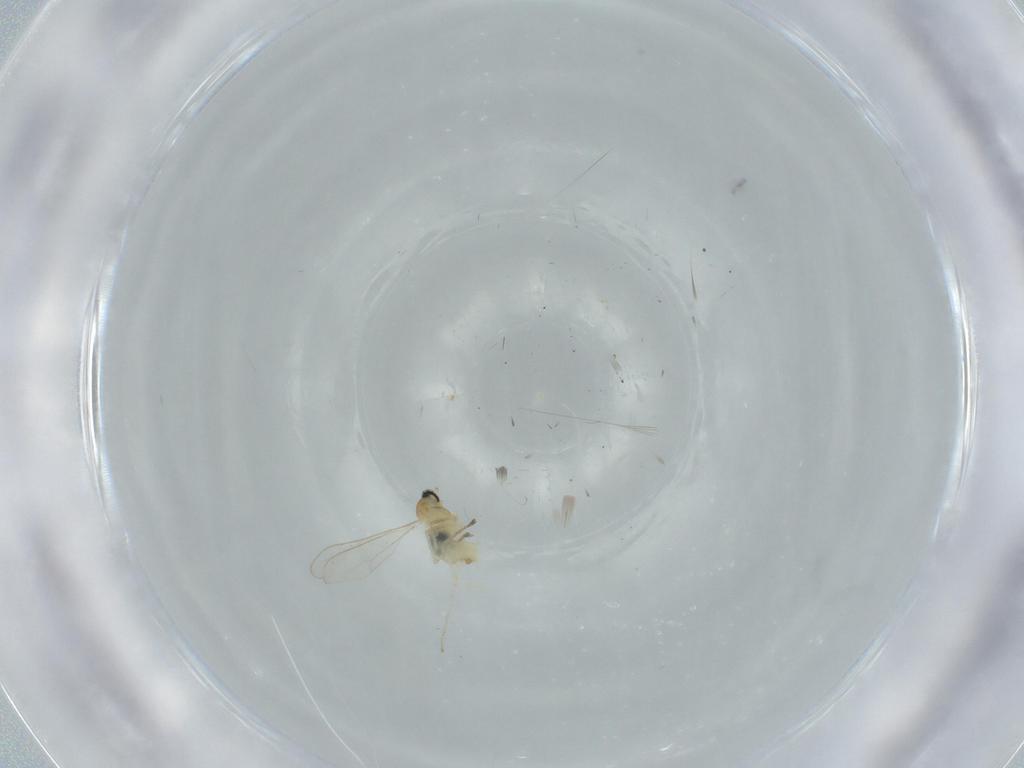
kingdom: Animalia
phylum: Arthropoda
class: Insecta
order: Diptera
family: Cecidomyiidae
